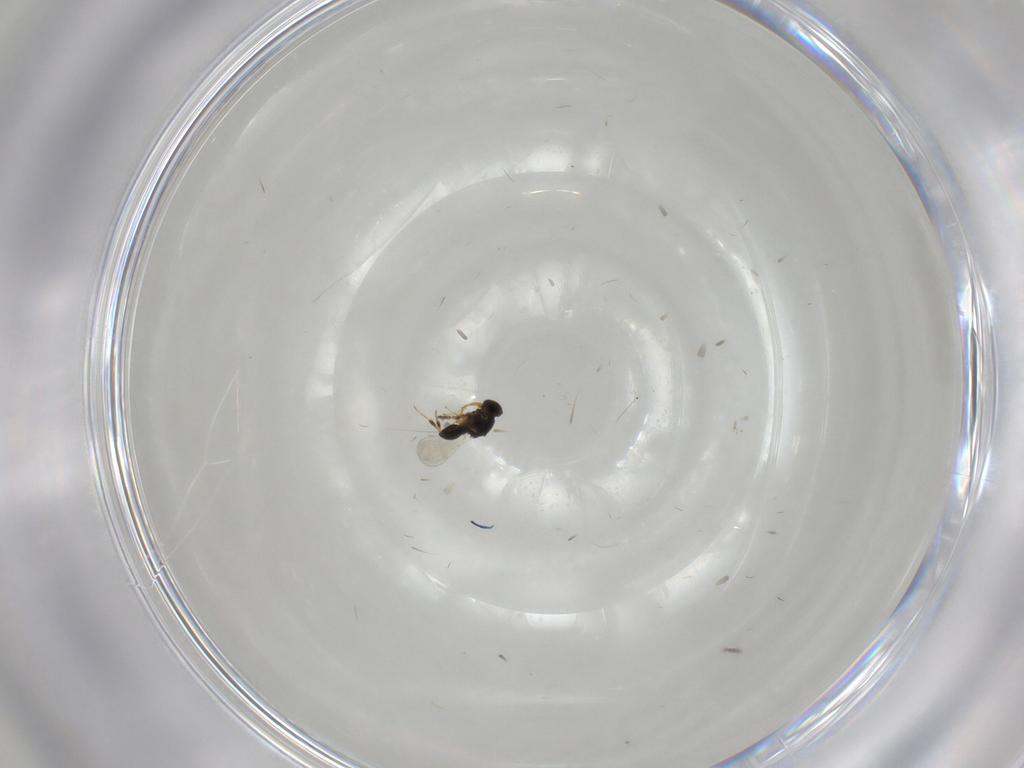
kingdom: Animalia
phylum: Arthropoda
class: Insecta
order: Hymenoptera
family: Platygastridae
